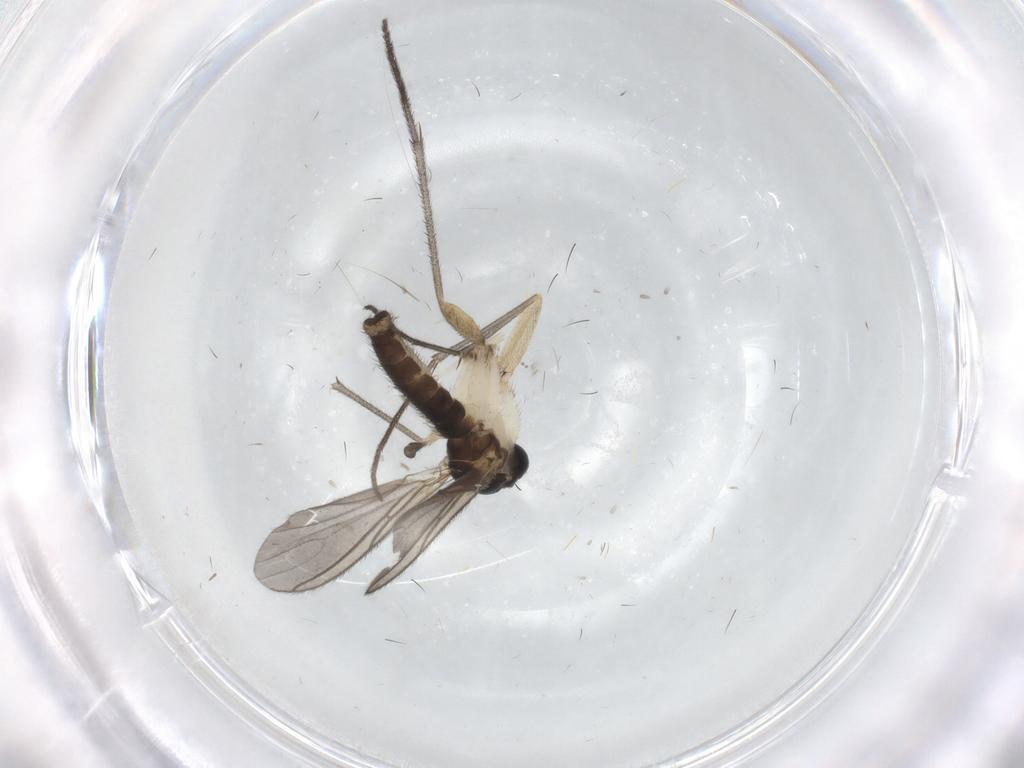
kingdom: Animalia
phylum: Arthropoda
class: Insecta
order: Diptera
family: Sciaridae
